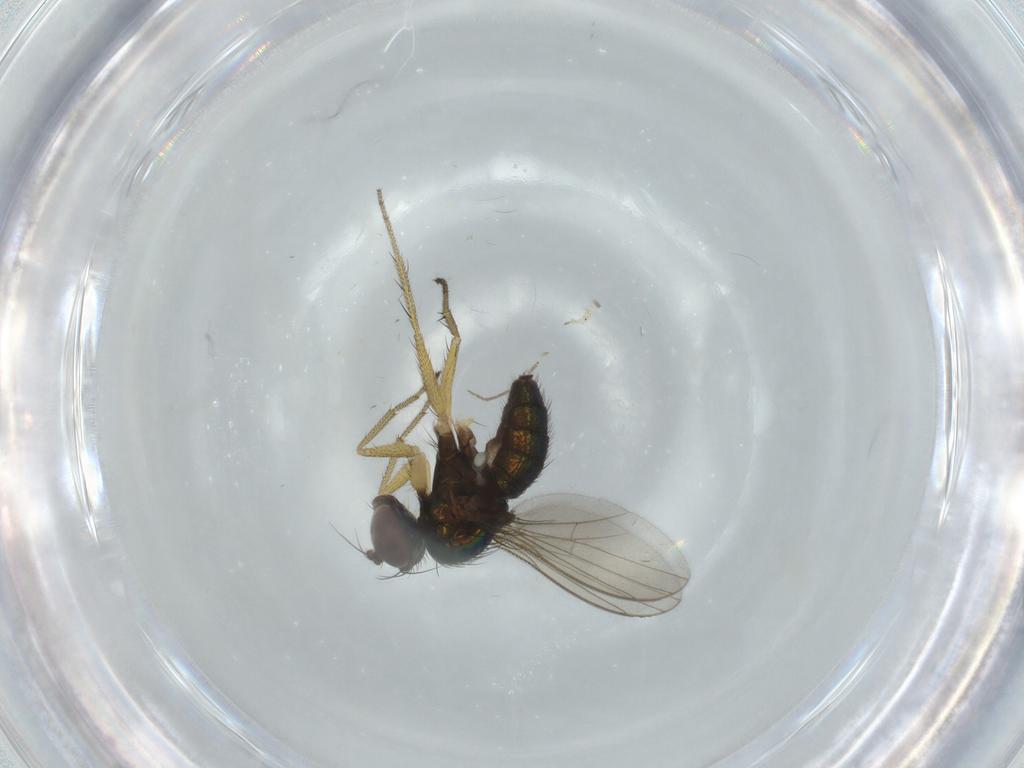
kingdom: Animalia
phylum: Arthropoda
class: Insecta
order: Diptera
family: Dolichopodidae
